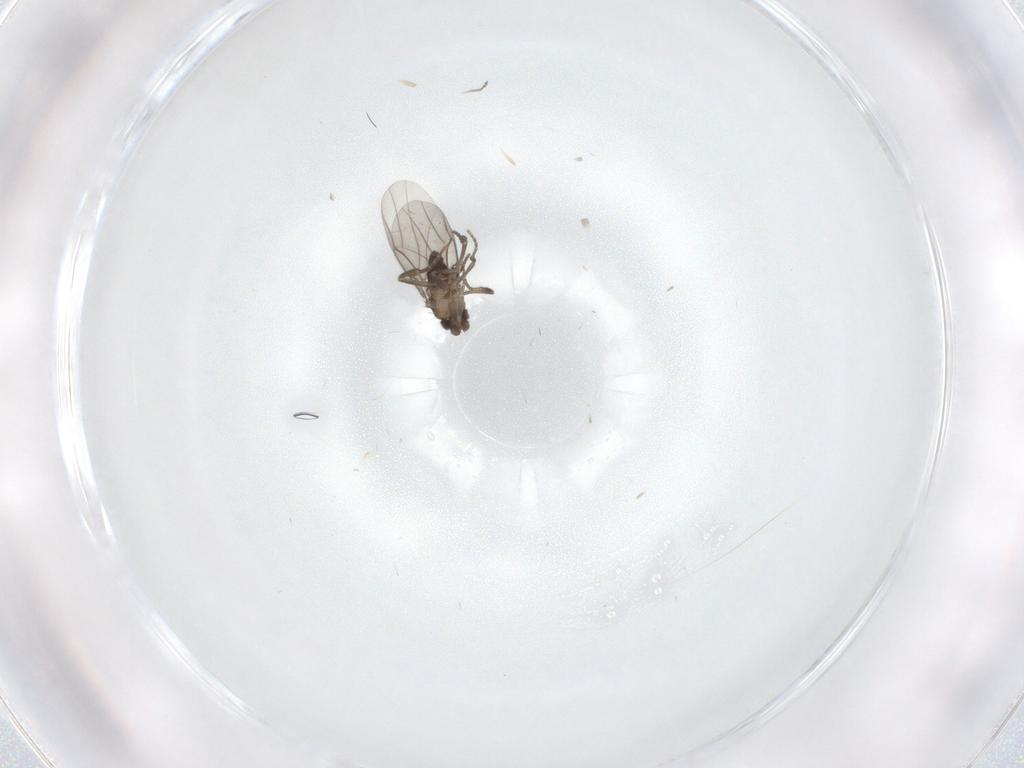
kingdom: Animalia
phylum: Arthropoda
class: Insecta
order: Diptera
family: Phoridae
